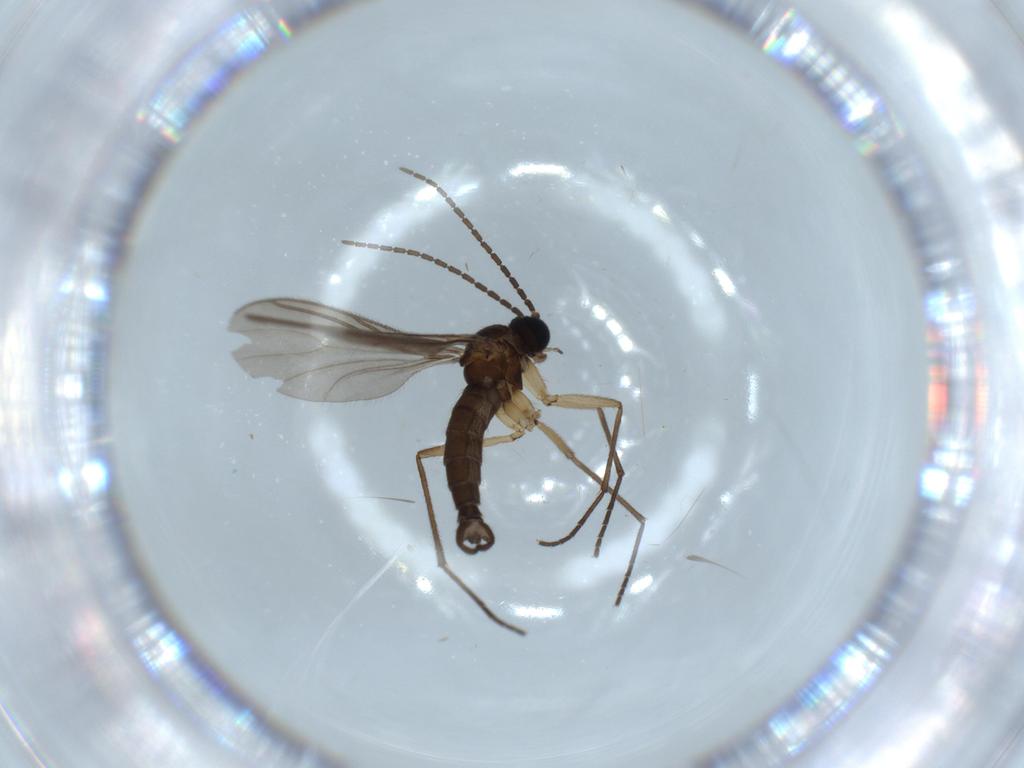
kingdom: Animalia
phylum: Arthropoda
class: Insecta
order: Diptera
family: Sciaridae
